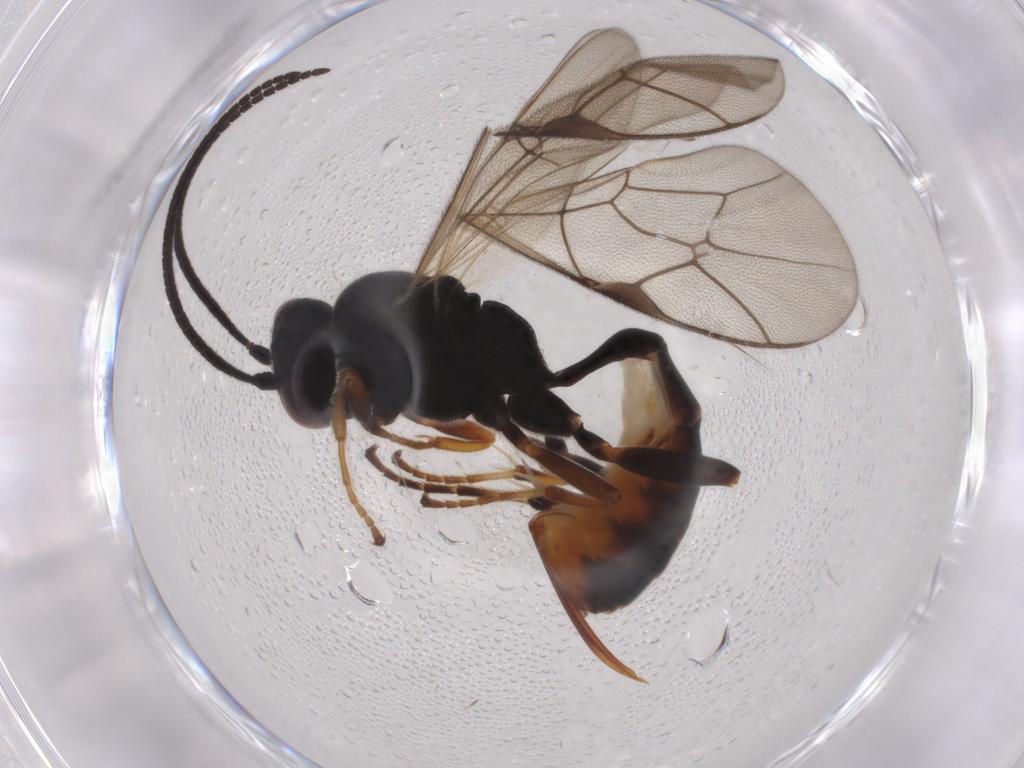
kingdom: Animalia
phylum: Arthropoda
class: Insecta
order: Hymenoptera
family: Ichneumonidae
